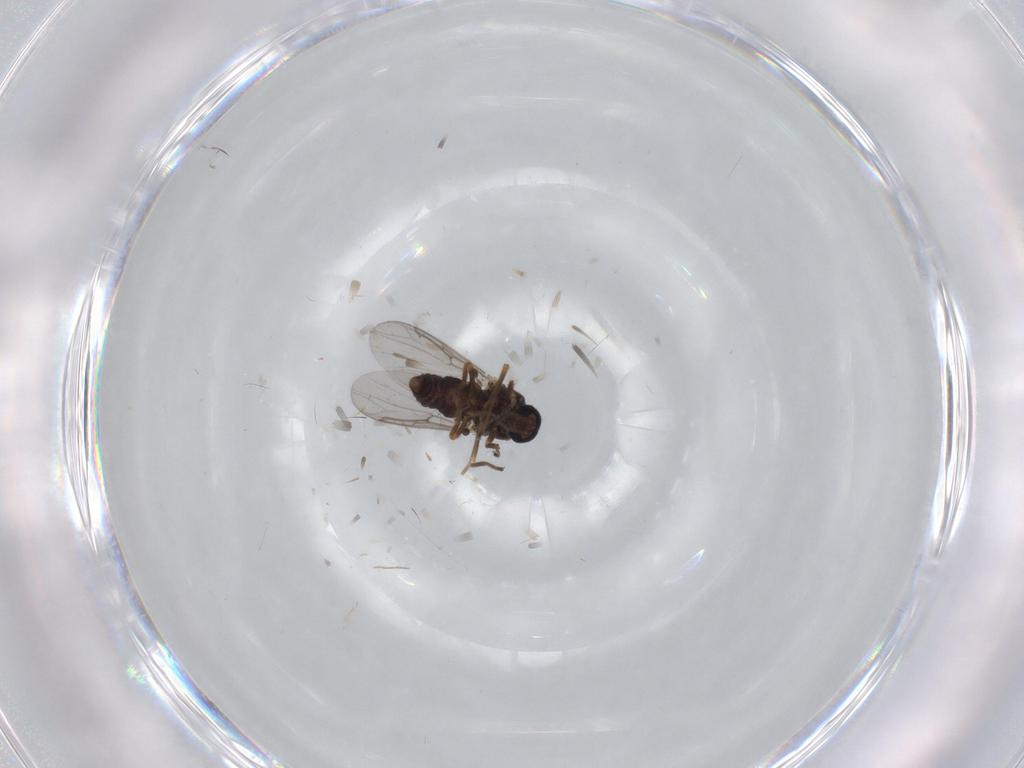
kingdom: Animalia
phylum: Arthropoda
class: Insecta
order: Diptera
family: Chironomidae
